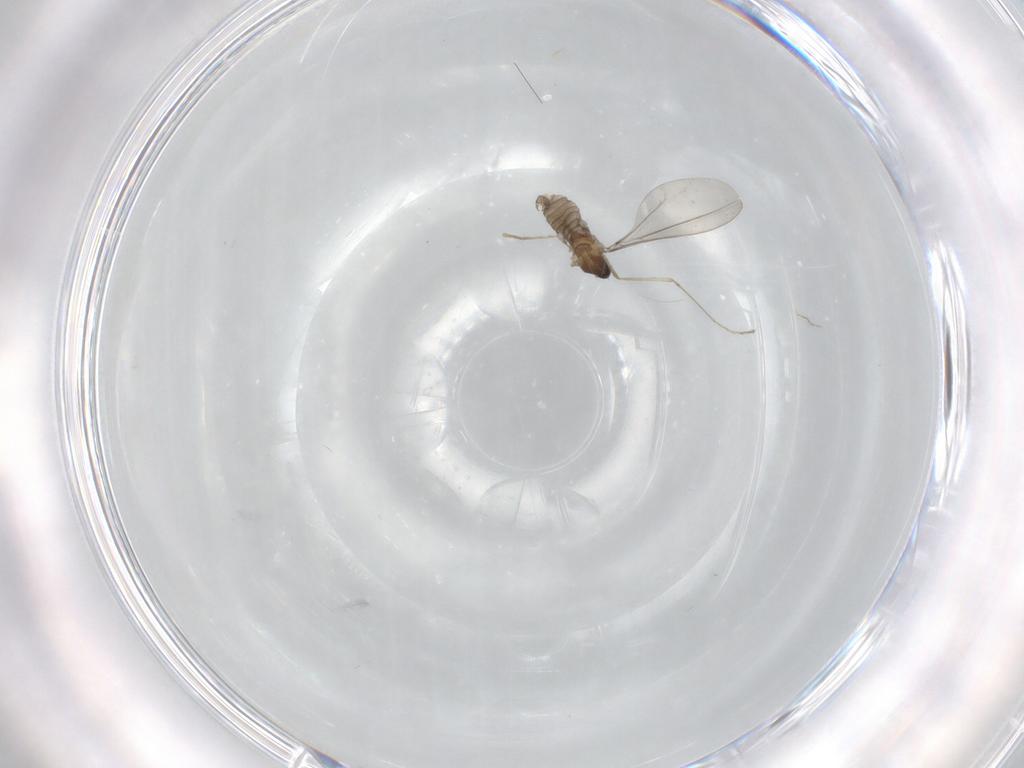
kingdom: Animalia
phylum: Arthropoda
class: Insecta
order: Diptera
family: Cecidomyiidae
